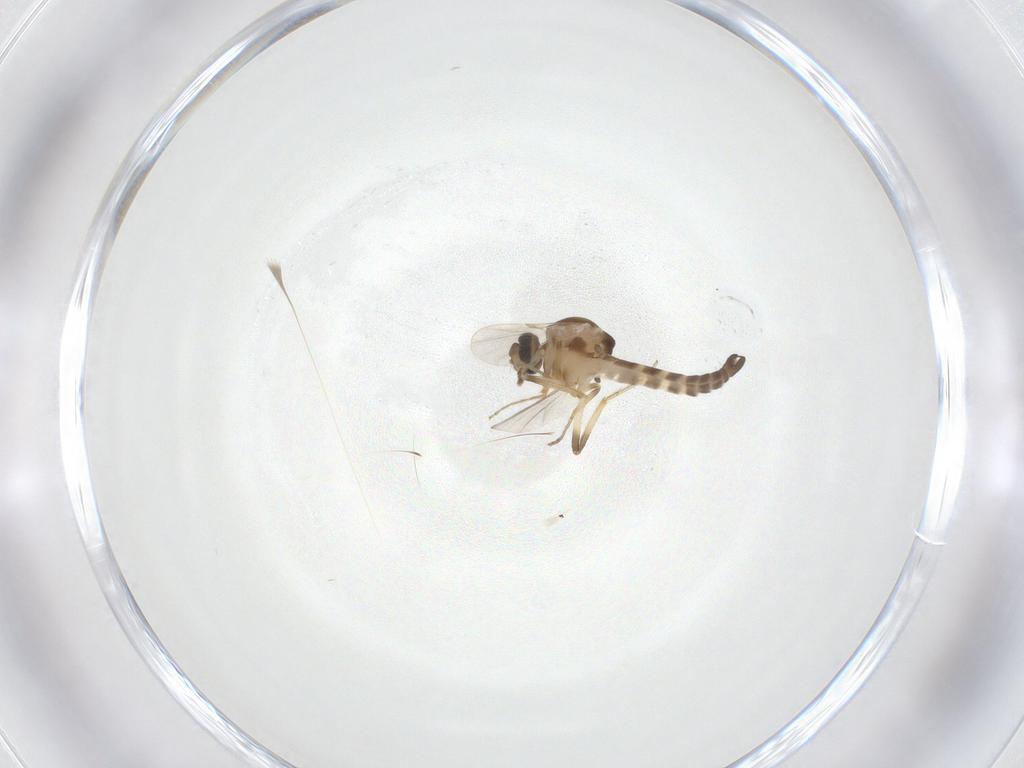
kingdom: Animalia
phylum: Arthropoda
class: Insecta
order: Diptera
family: Ceratopogonidae
